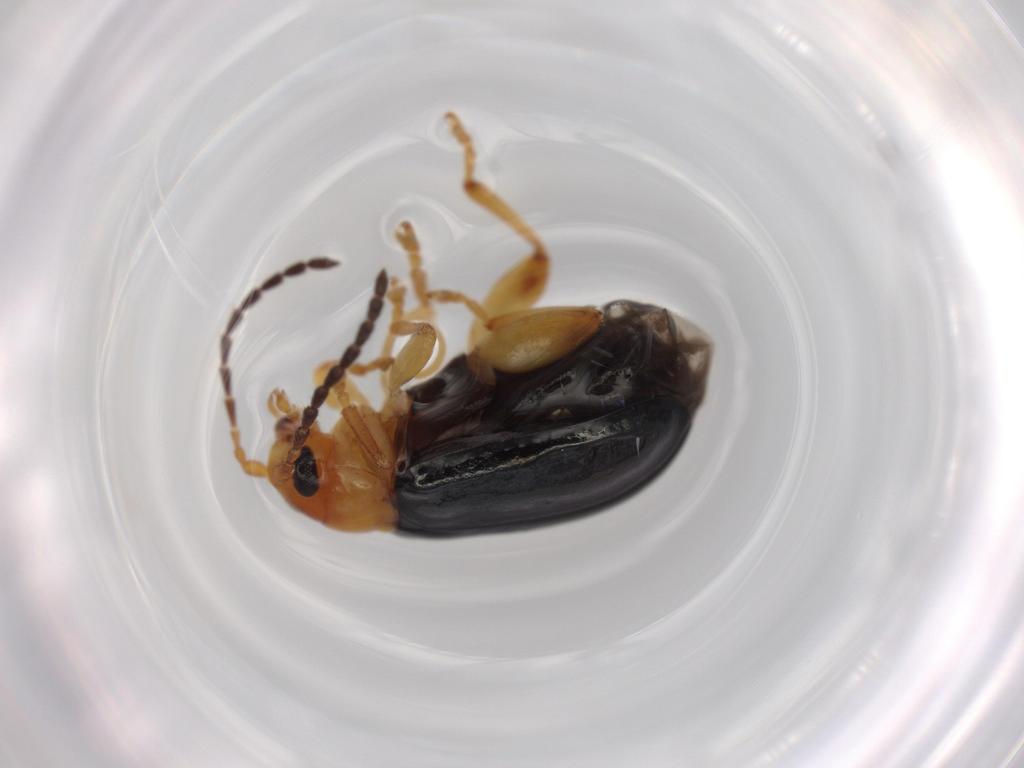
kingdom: Animalia
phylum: Arthropoda
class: Insecta
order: Coleoptera
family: Chrysomelidae
